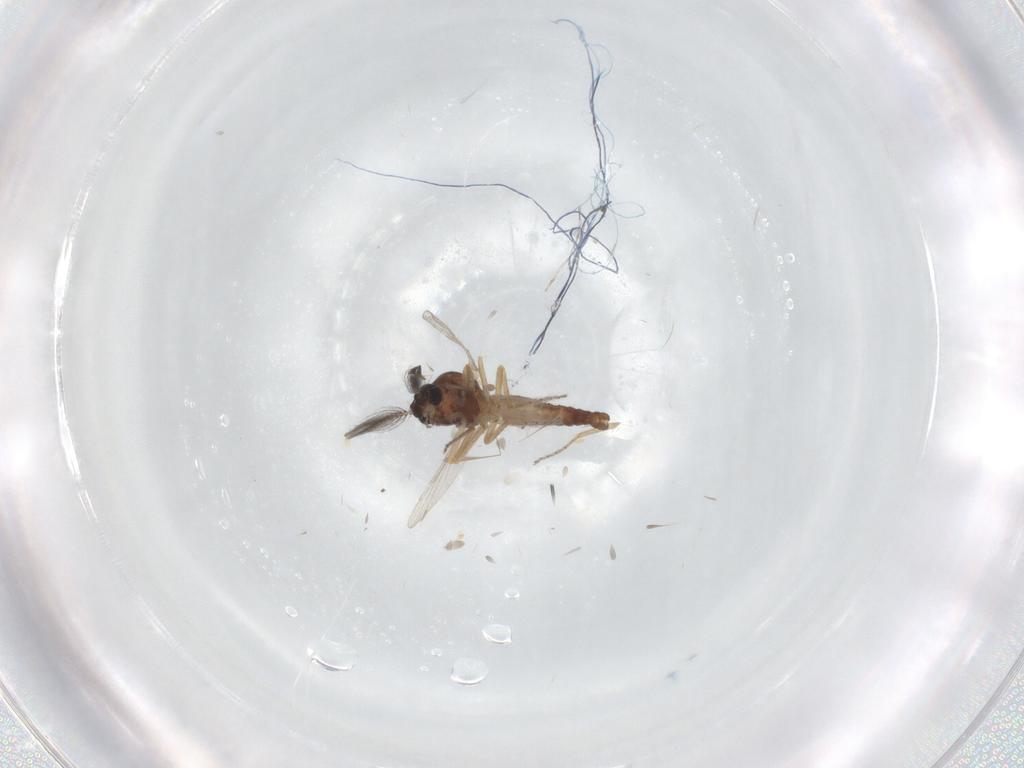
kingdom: Animalia
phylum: Arthropoda
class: Insecta
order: Diptera
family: Ceratopogonidae
